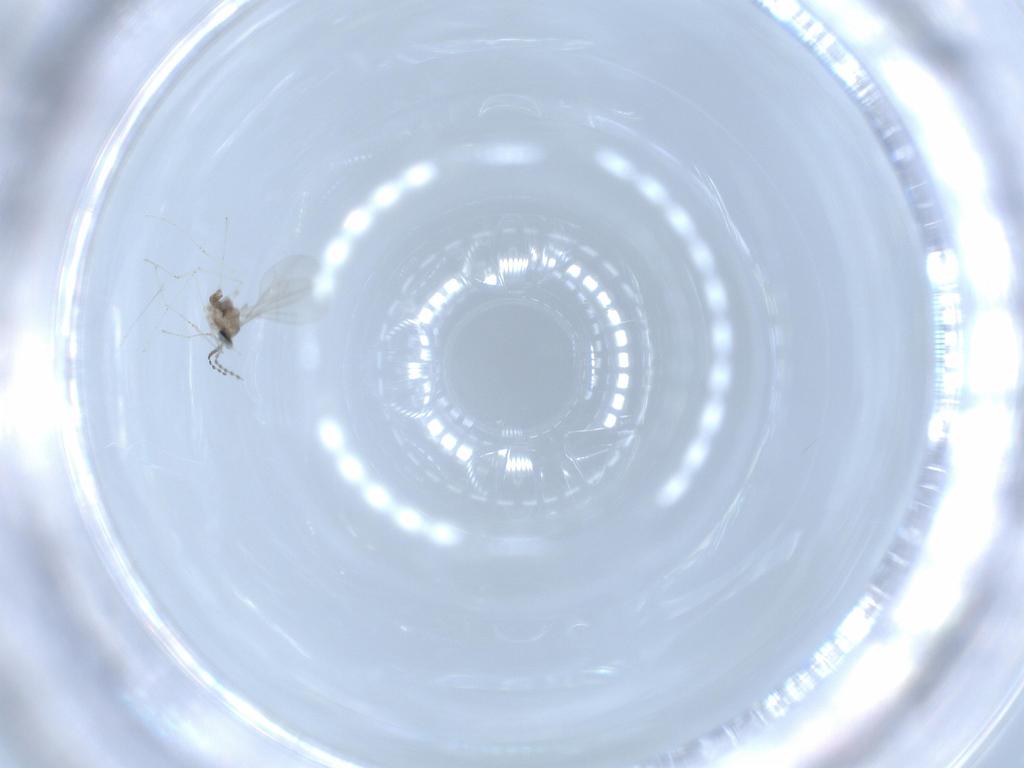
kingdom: Animalia
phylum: Arthropoda
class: Insecta
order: Diptera
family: Cecidomyiidae
